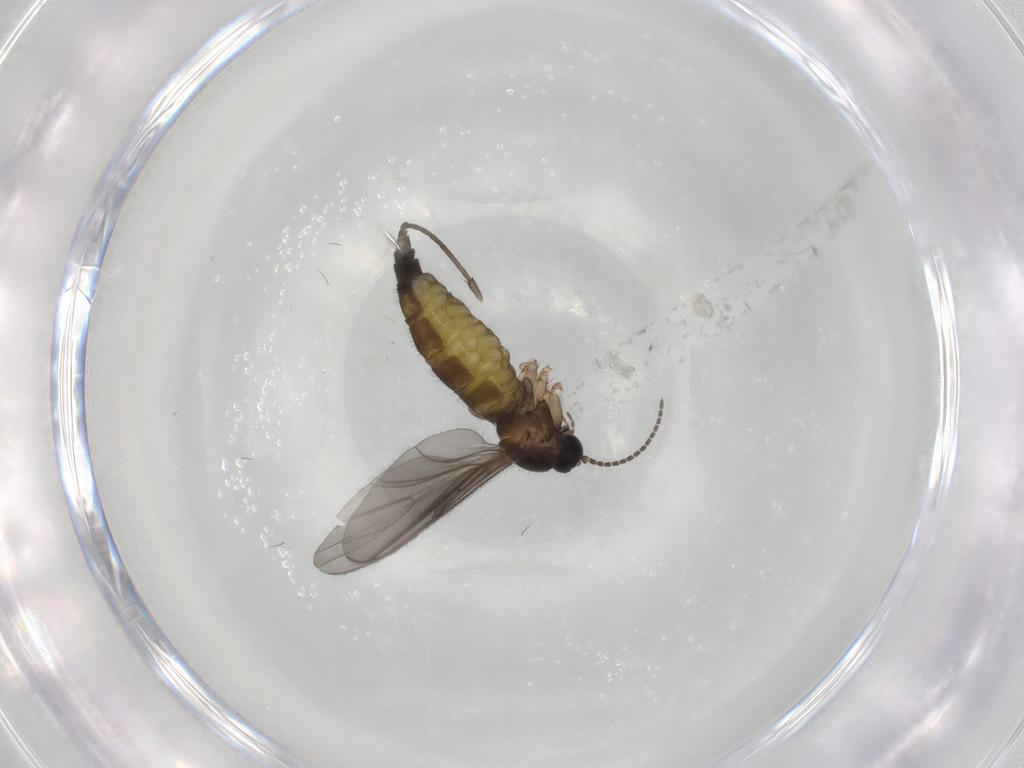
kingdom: Animalia
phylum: Arthropoda
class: Insecta
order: Diptera
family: Sciaridae
